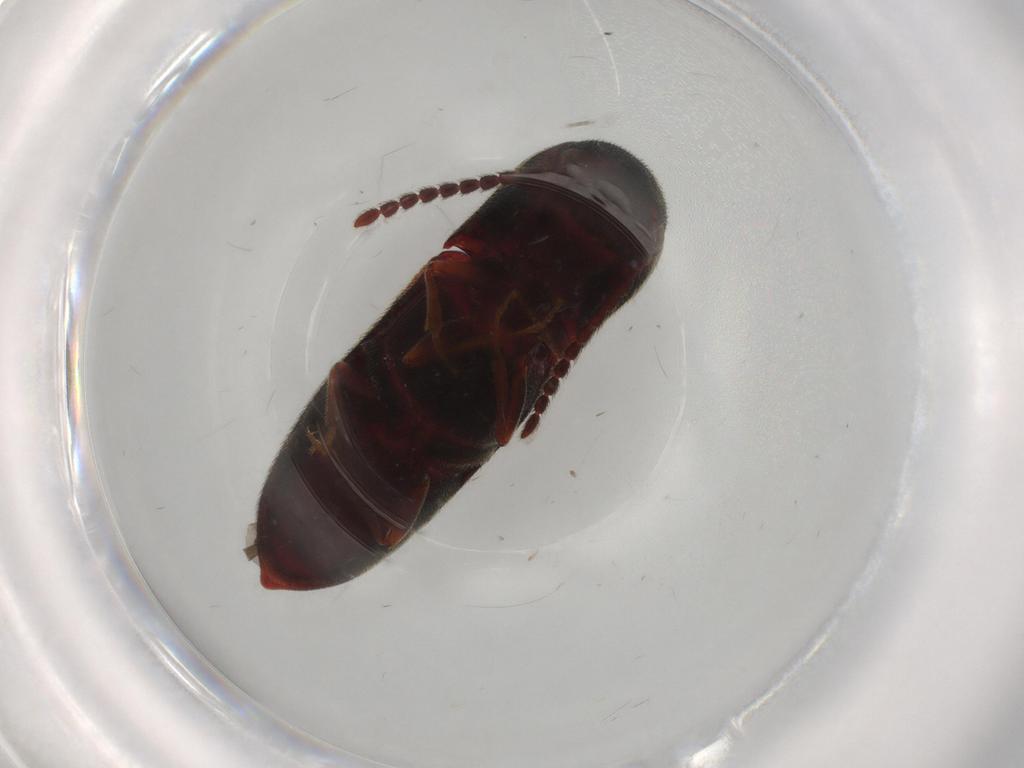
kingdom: Animalia
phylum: Arthropoda
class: Insecta
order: Coleoptera
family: Eucnemidae
